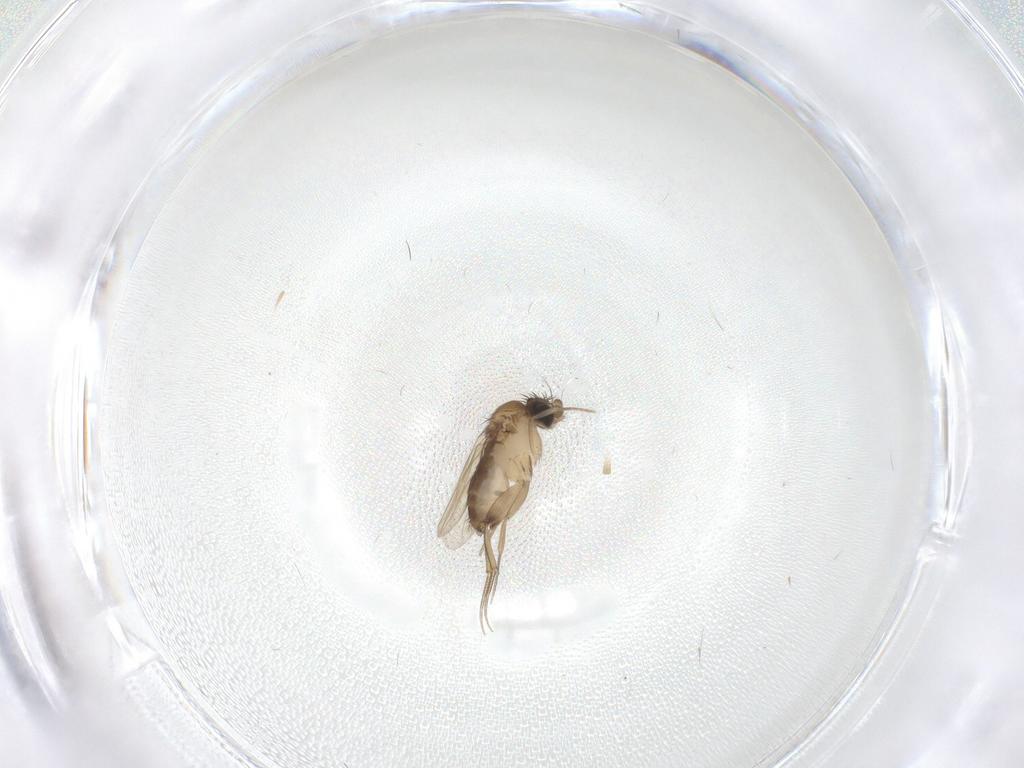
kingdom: Animalia
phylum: Arthropoda
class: Insecta
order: Diptera
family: Phoridae
